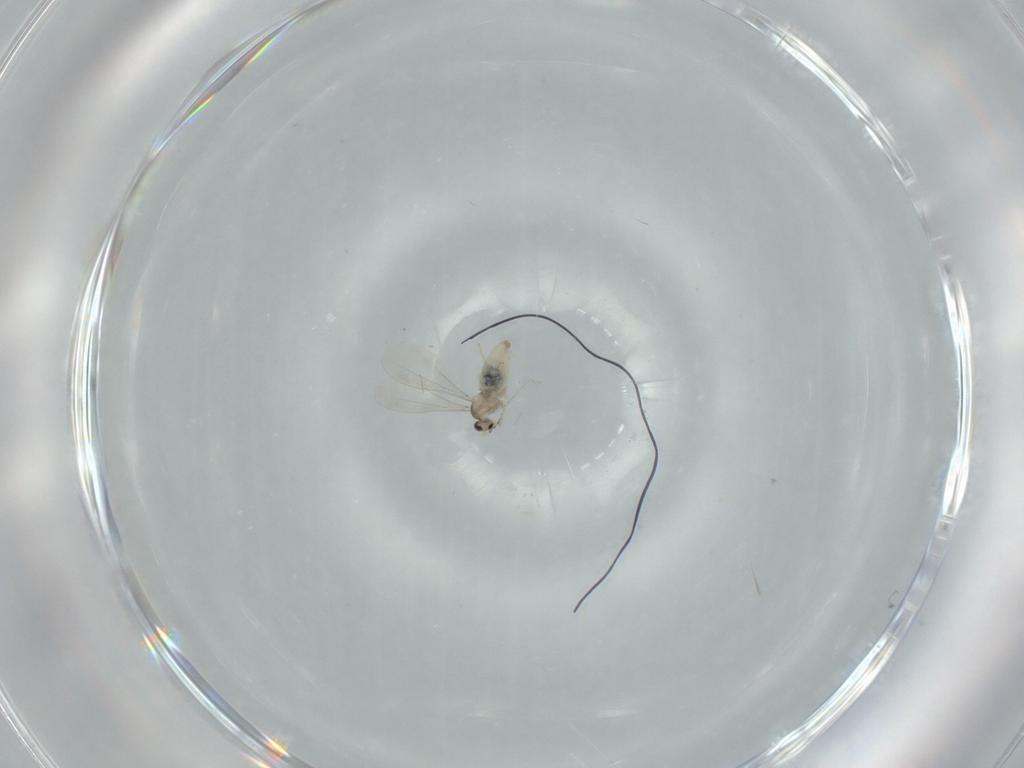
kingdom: Animalia
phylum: Arthropoda
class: Insecta
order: Diptera
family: Cecidomyiidae
